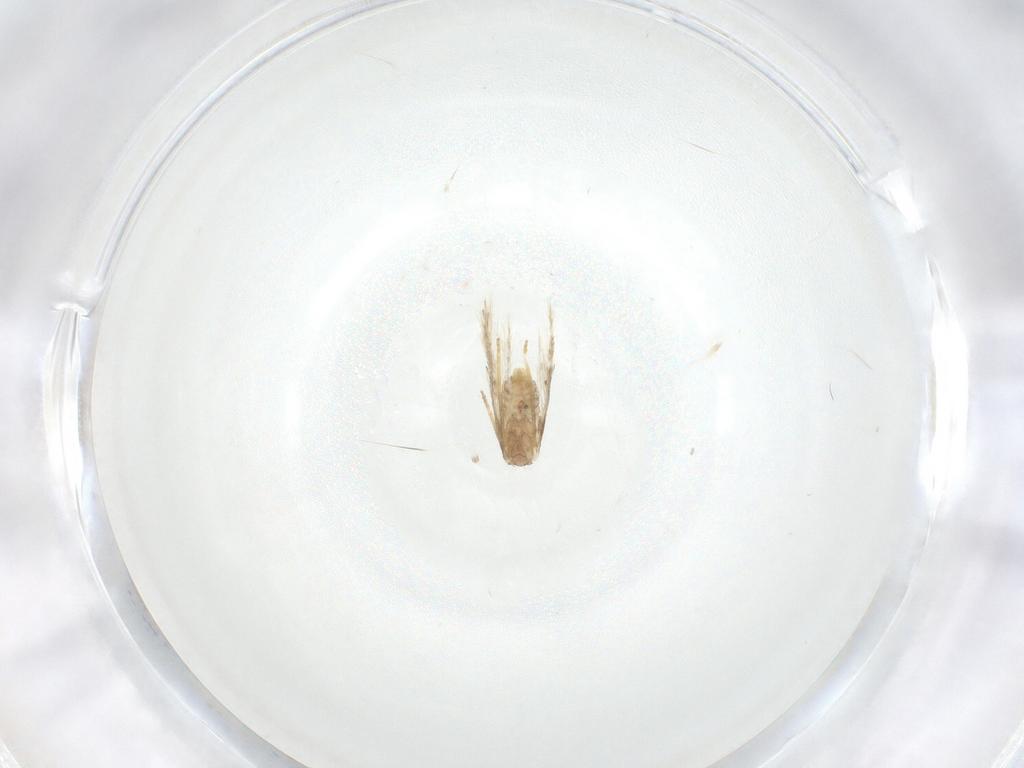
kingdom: Animalia
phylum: Arthropoda
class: Insecta
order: Lepidoptera
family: Nepticulidae
